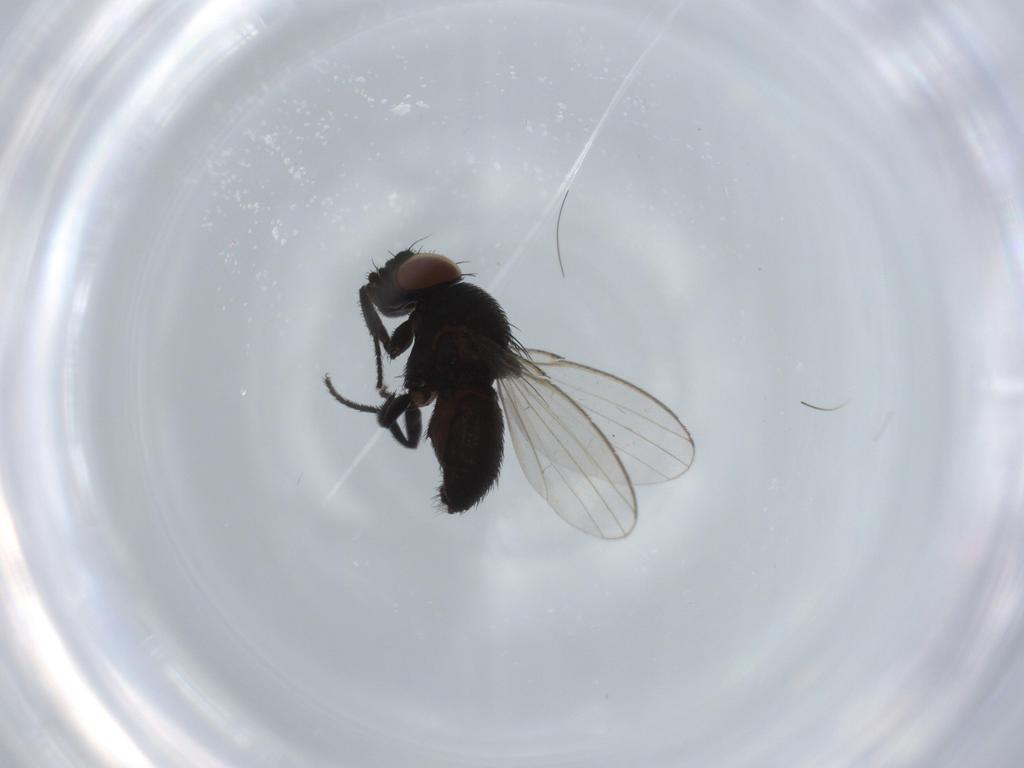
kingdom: Animalia
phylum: Arthropoda
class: Insecta
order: Diptera
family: Milichiidae
